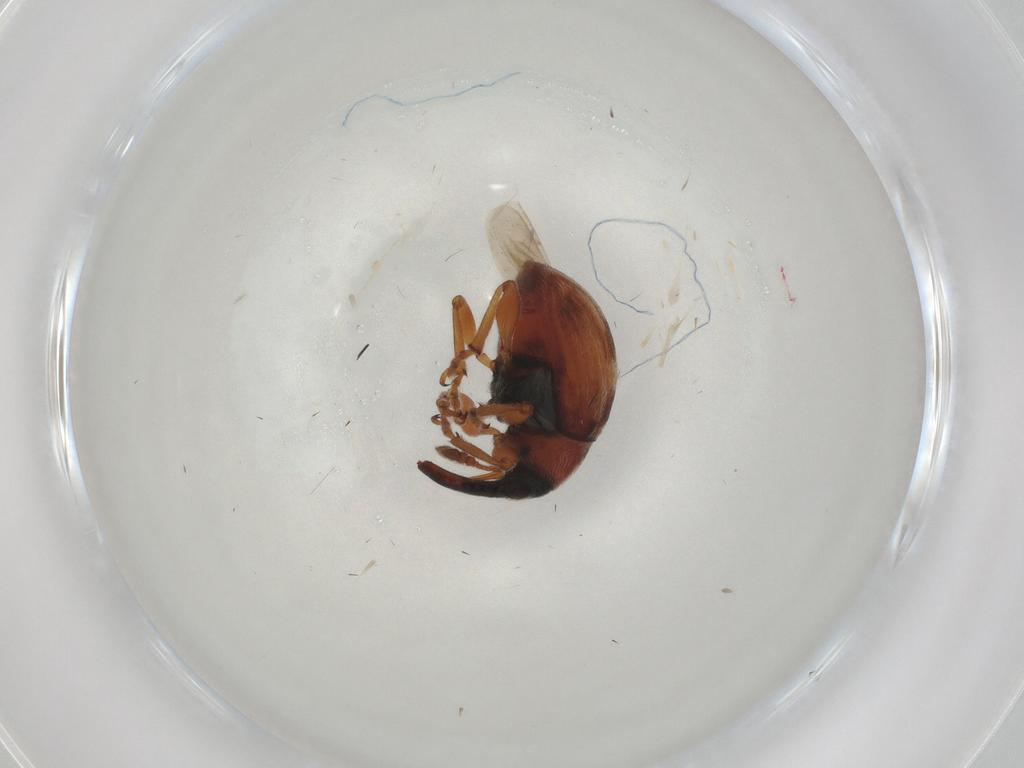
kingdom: Animalia
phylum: Arthropoda
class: Insecta
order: Coleoptera
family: Brentidae
